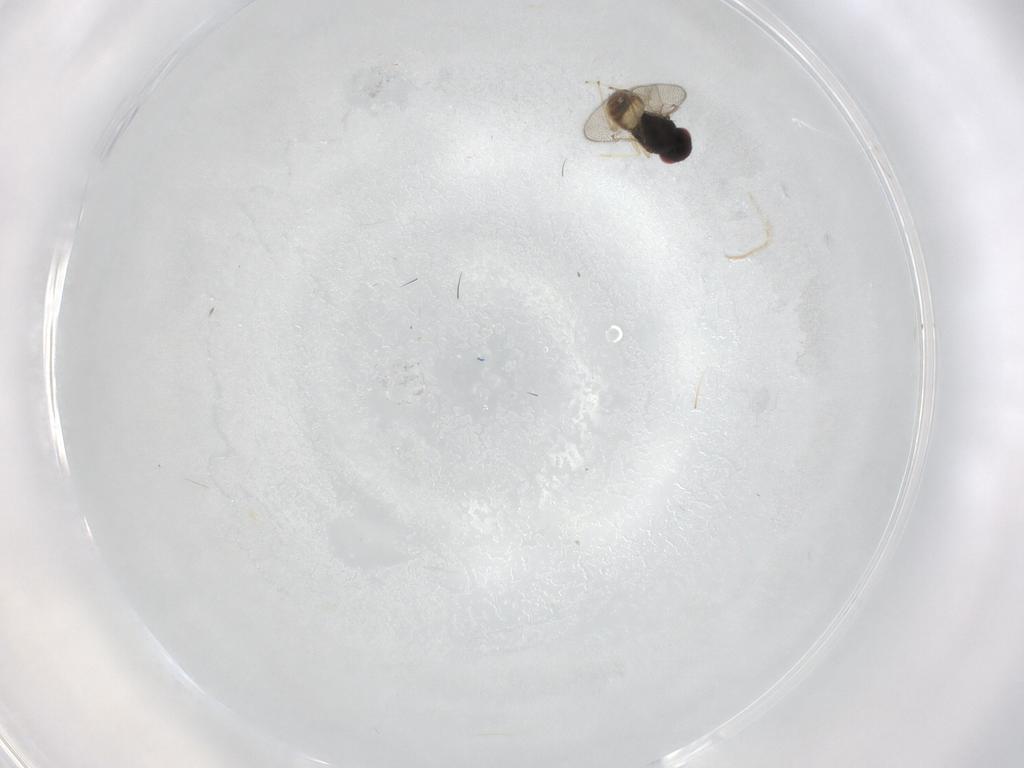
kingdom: Animalia
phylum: Arthropoda
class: Insecta
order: Hymenoptera
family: Eulophidae
